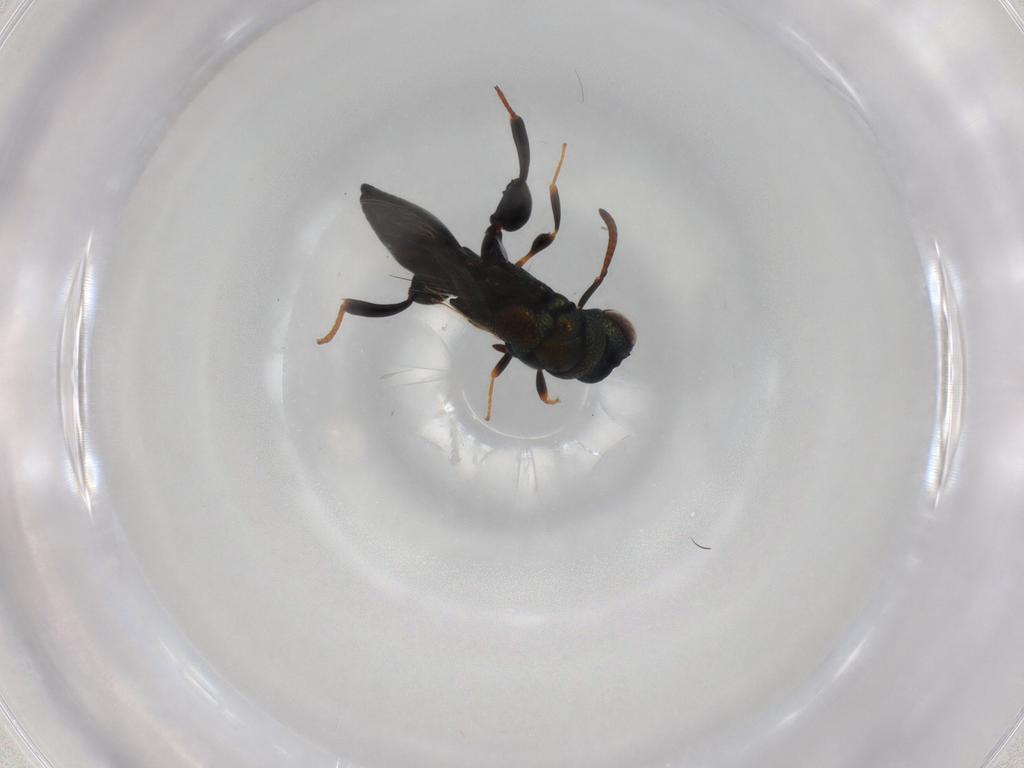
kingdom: Animalia
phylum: Arthropoda
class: Insecta
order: Hymenoptera
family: Chalcididae
